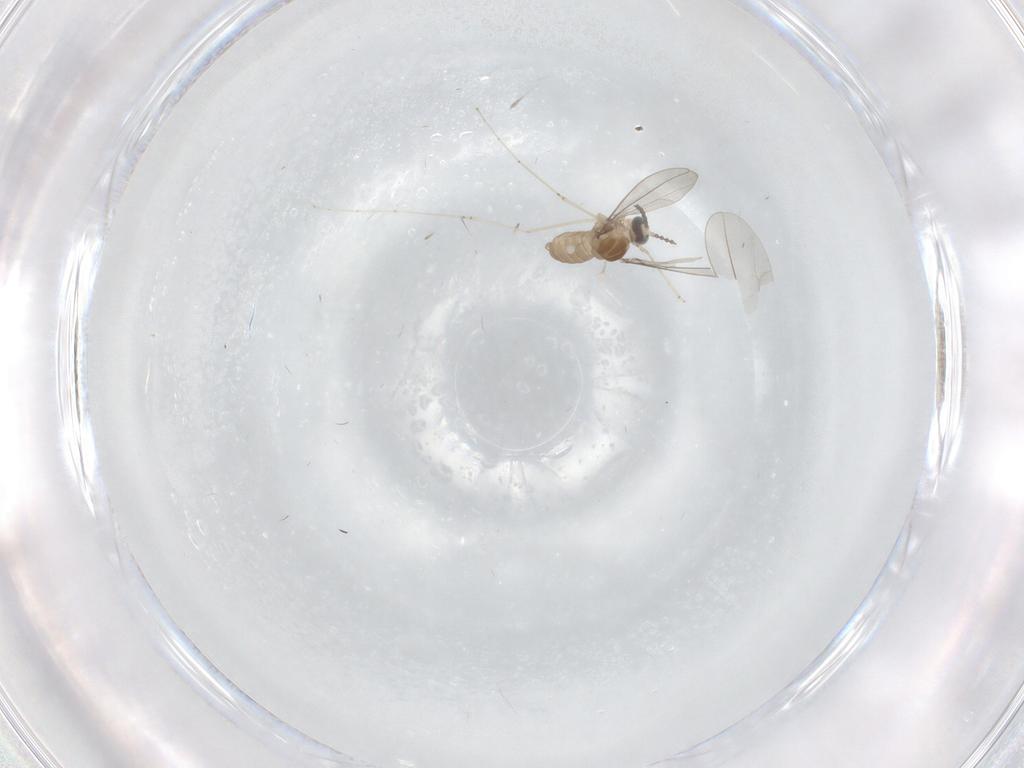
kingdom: Animalia
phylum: Arthropoda
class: Insecta
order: Diptera
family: Cecidomyiidae
